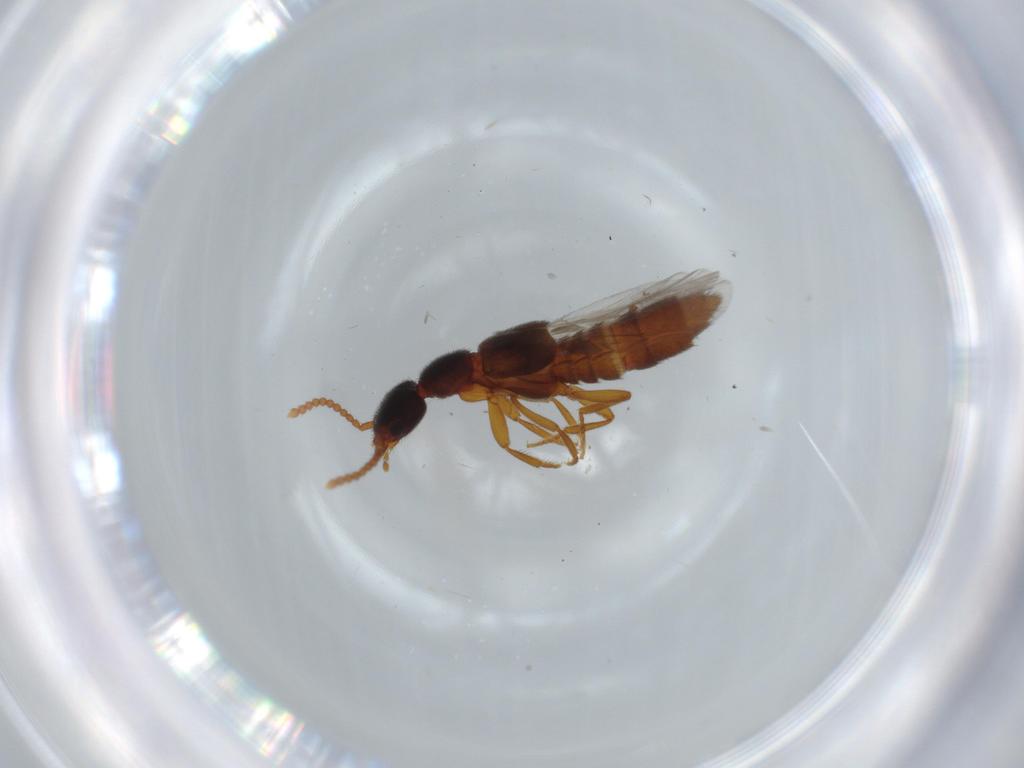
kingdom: Animalia
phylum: Arthropoda
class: Insecta
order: Coleoptera
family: Staphylinidae
